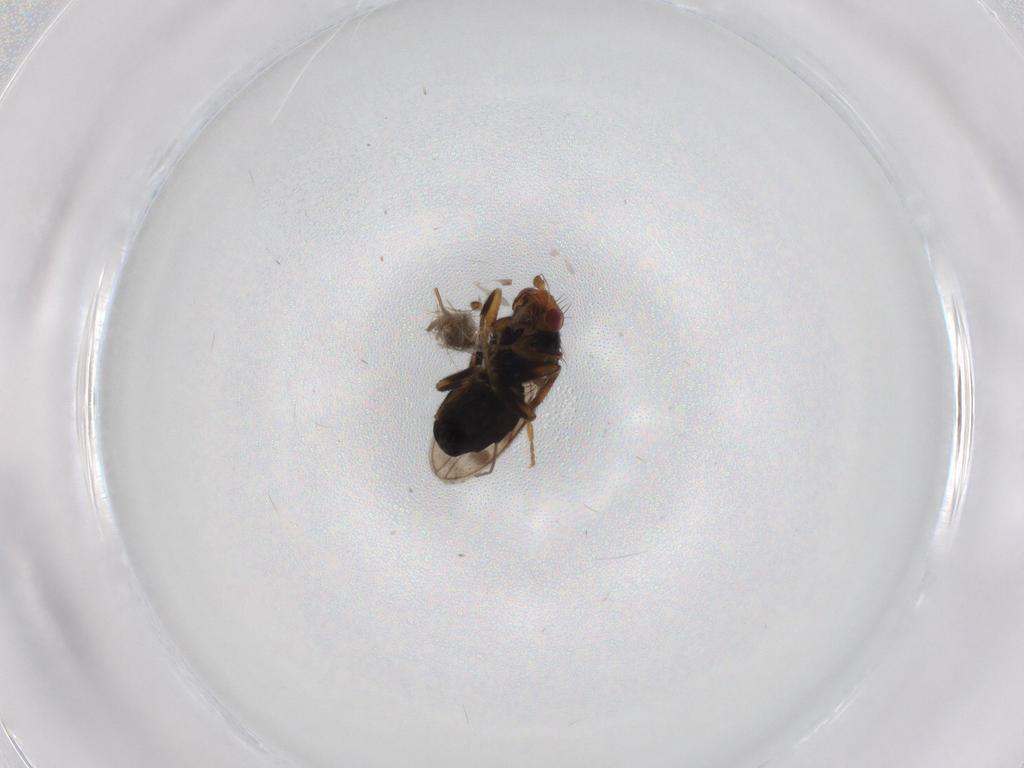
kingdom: Animalia
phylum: Arthropoda
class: Insecta
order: Diptera
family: Sphaeroceridae
